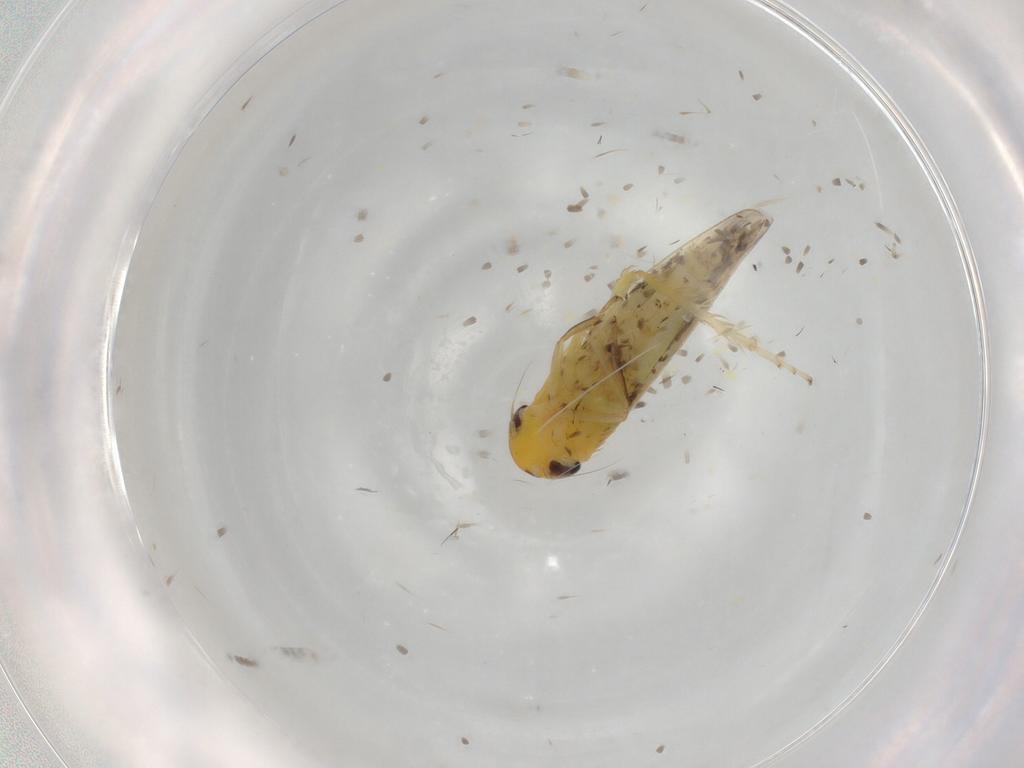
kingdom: Animalia
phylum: Arthropoda
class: Insecta
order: Hemiptera
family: Cicadellidae
